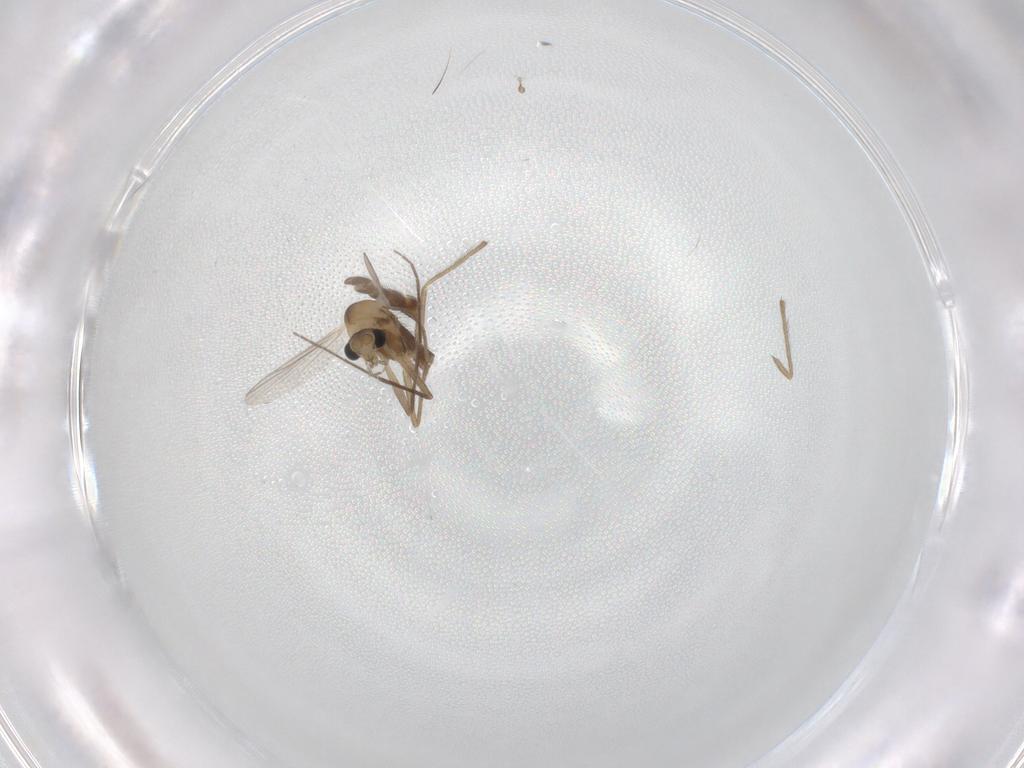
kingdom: Animalia
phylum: Arthropoda
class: Insecta
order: Diptera
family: Chironomidae
